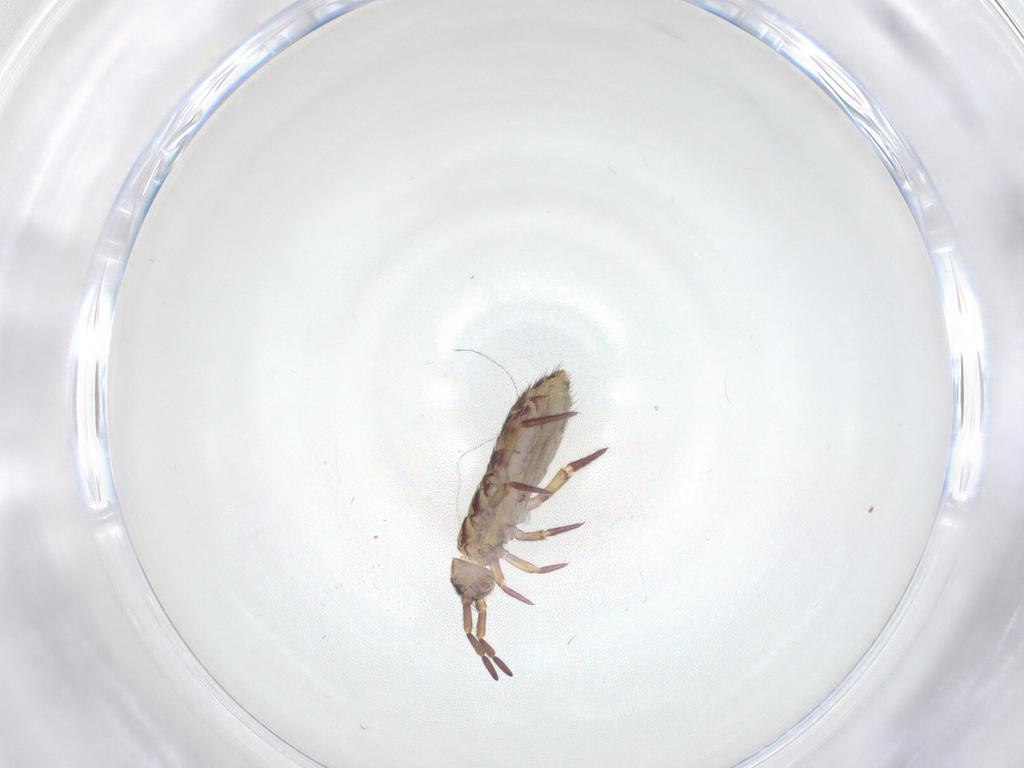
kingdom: Animalia
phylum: Arthropoda
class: Collembola
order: Entomobryomorpha
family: Isotomidae
